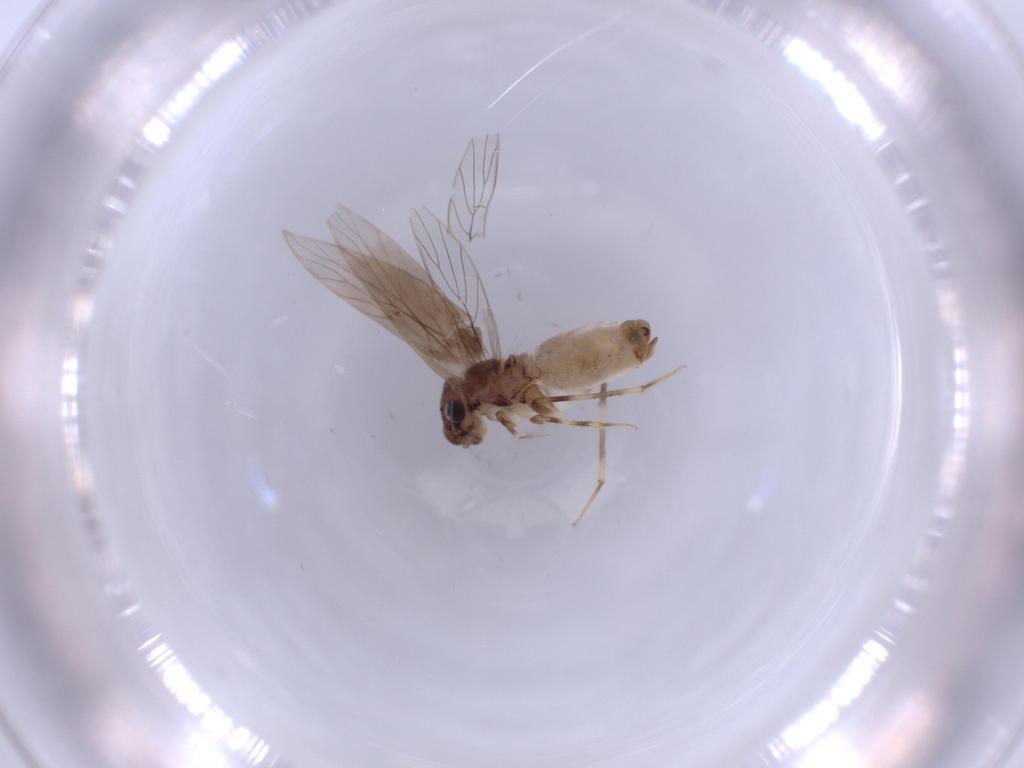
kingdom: Animalia
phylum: Arthropoda
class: Insecta
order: Psocodea
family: Lepidopsocidae
